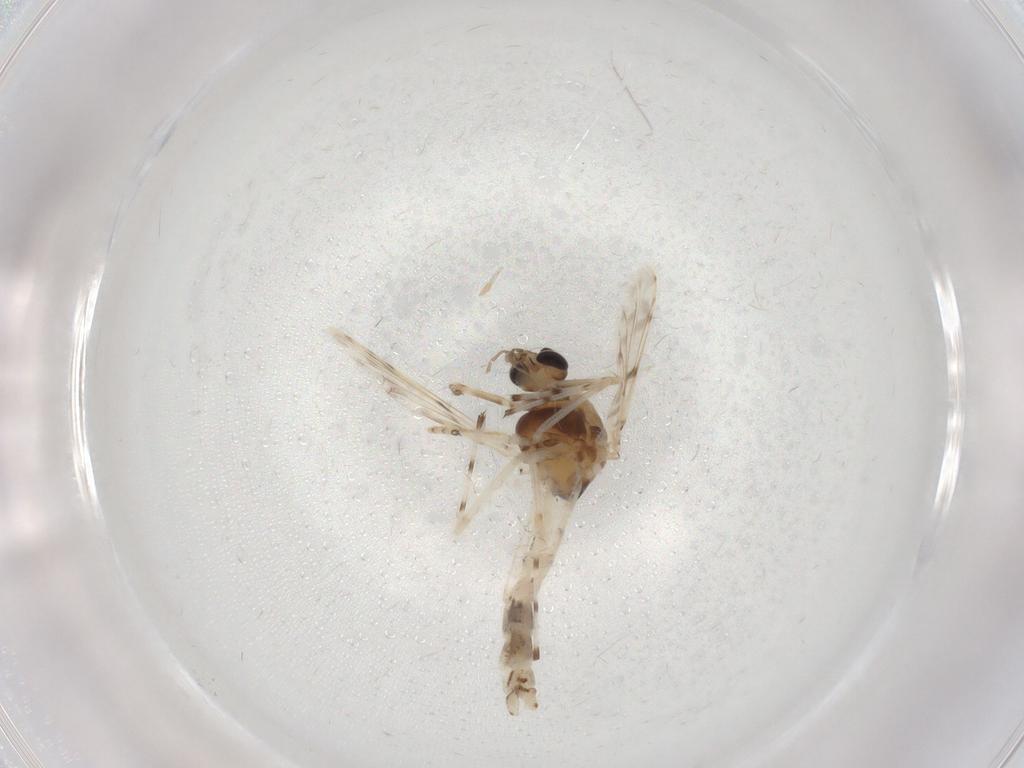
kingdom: Animalia
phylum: Arthropoda
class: Insecta
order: Diptera
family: Chironomidae
